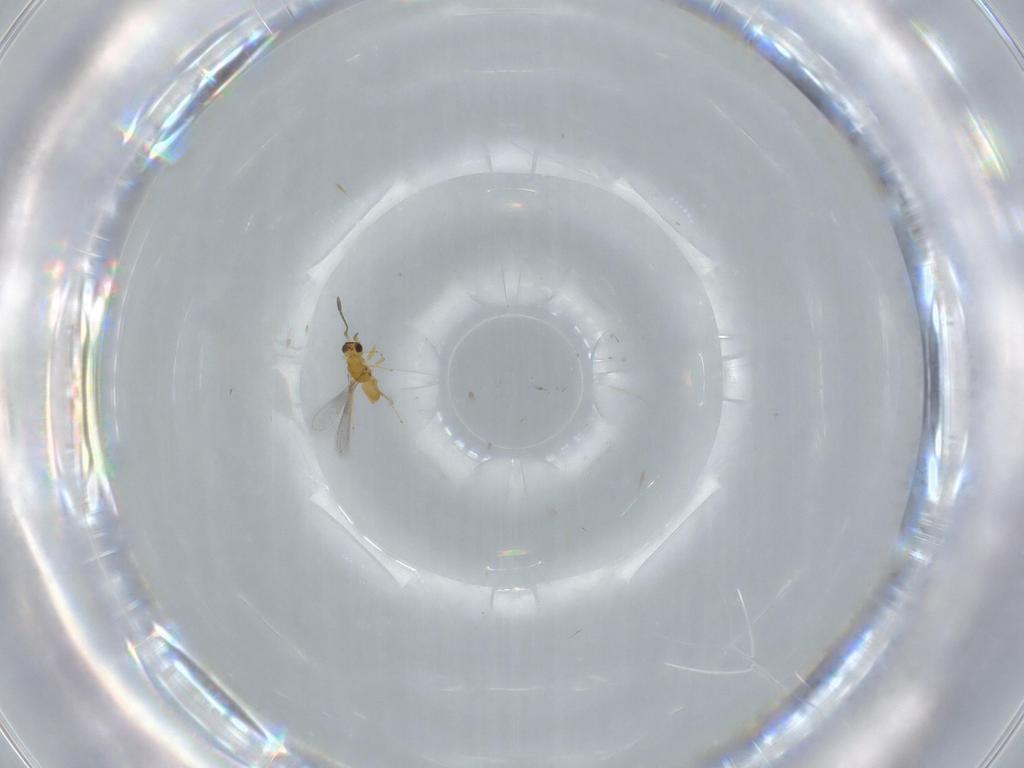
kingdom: Animalia
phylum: Arthropoda
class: Insecta
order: Hymenoptera
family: Mymaridae
